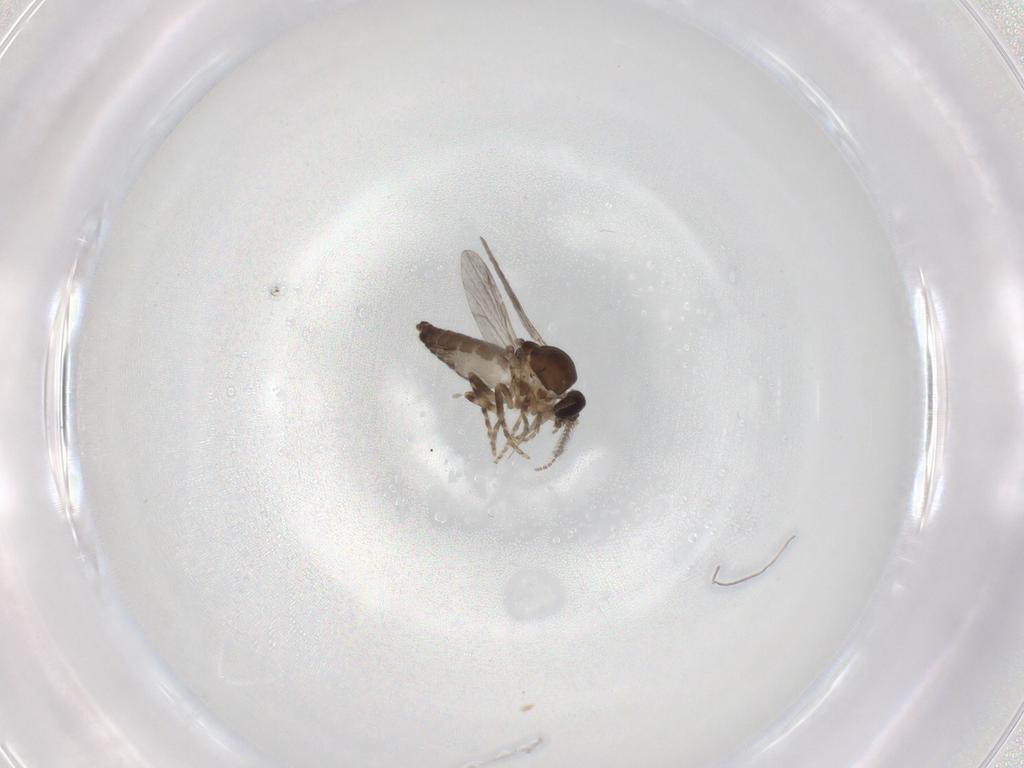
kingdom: Animalia
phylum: Arthropoda
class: Insecta
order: Diptera
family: Ceratopogonidae
